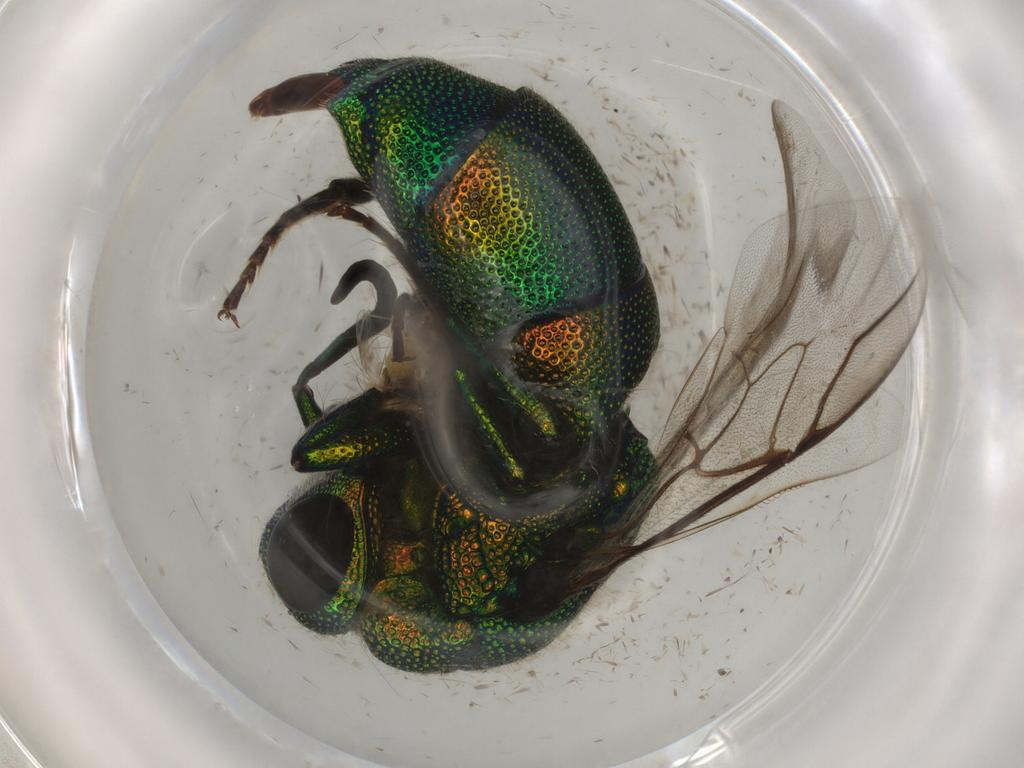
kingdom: Animalia
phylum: Arthropoda
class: Insecta
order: Hymenoptera
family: Chrysididae
